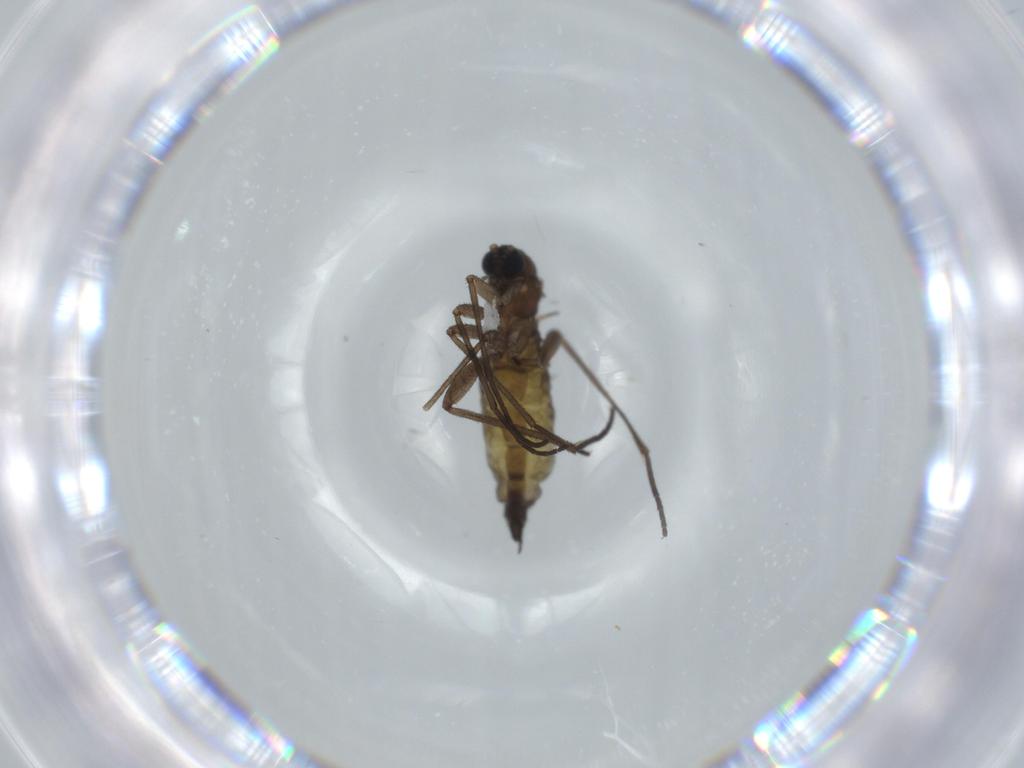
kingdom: Animalia
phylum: Arthropoda
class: Insecta
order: Diptera
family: Sciaridae
